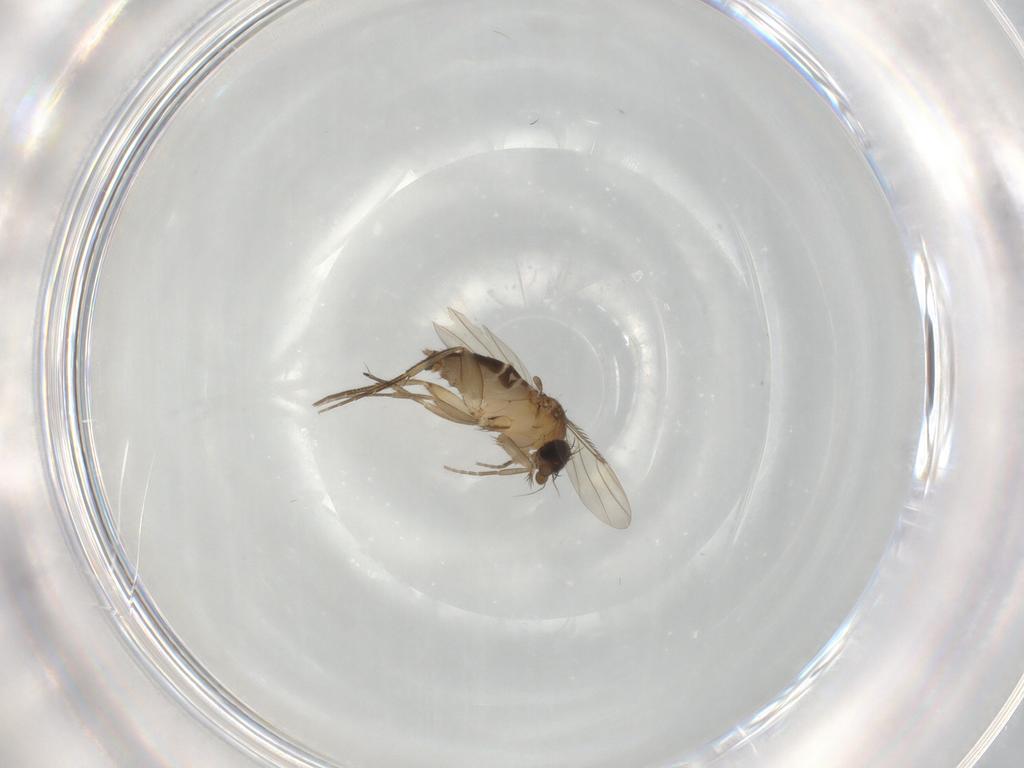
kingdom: Animalia
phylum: Arthropoda
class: Insecta
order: Diptera
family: Phoridae
